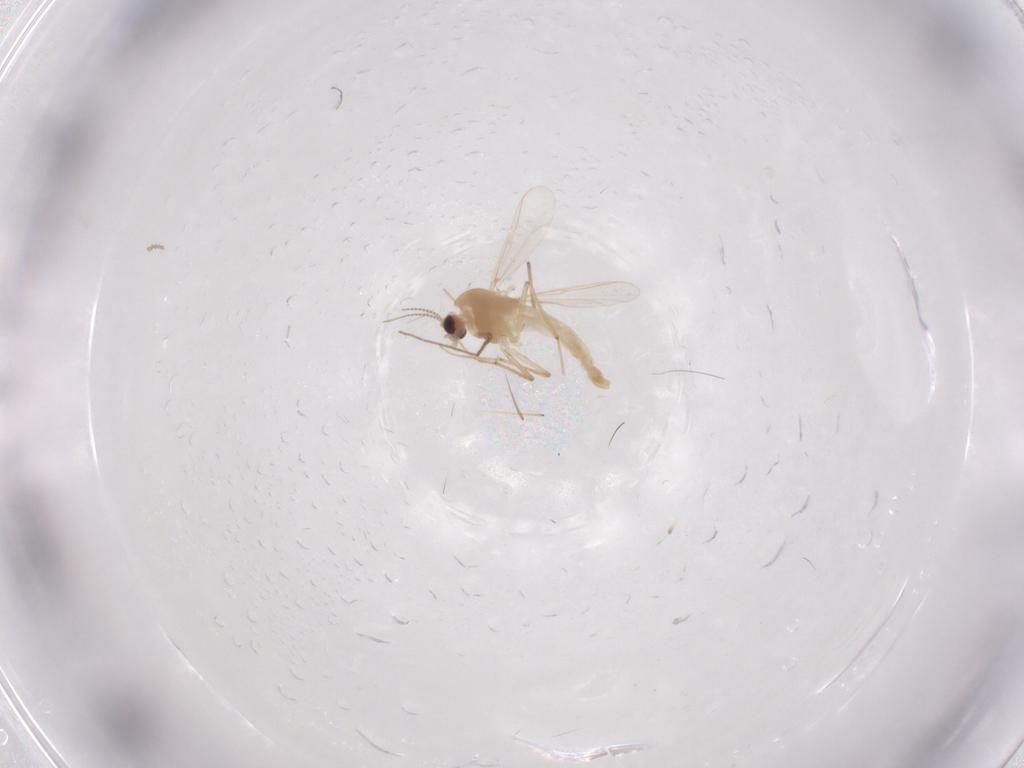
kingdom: Animalia
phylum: Arthropoda
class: Insecta
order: Diptera
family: Chironomidae
